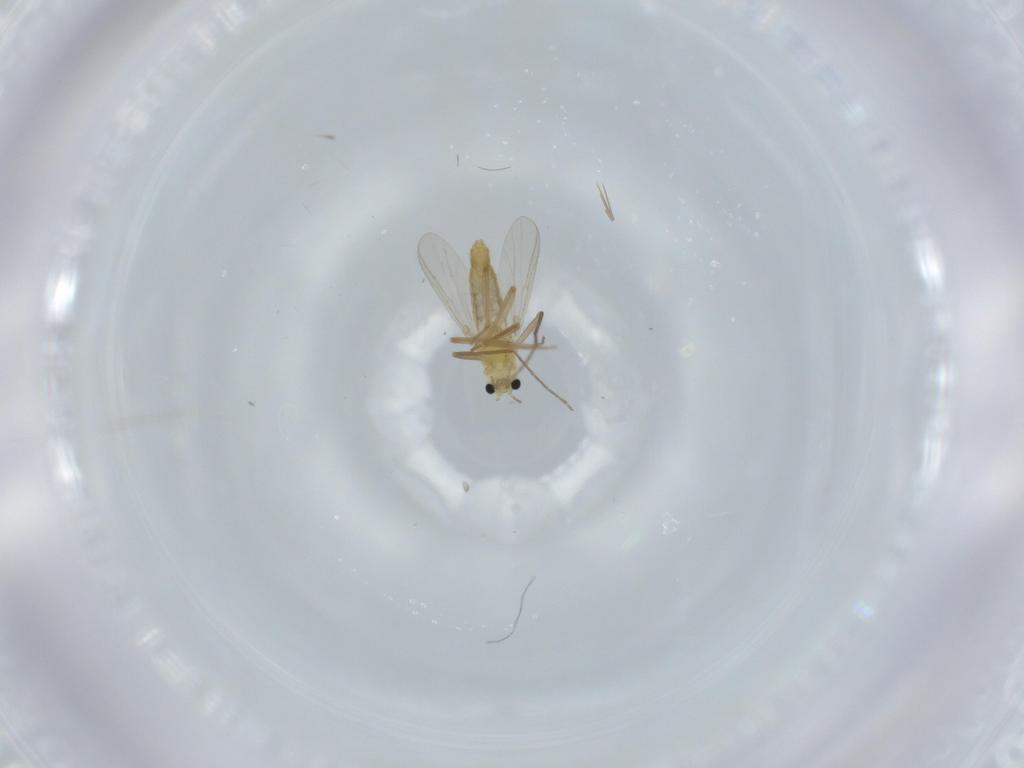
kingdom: Animalia
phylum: Arthropoda
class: Insecta
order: Diptera
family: Chironomidae
